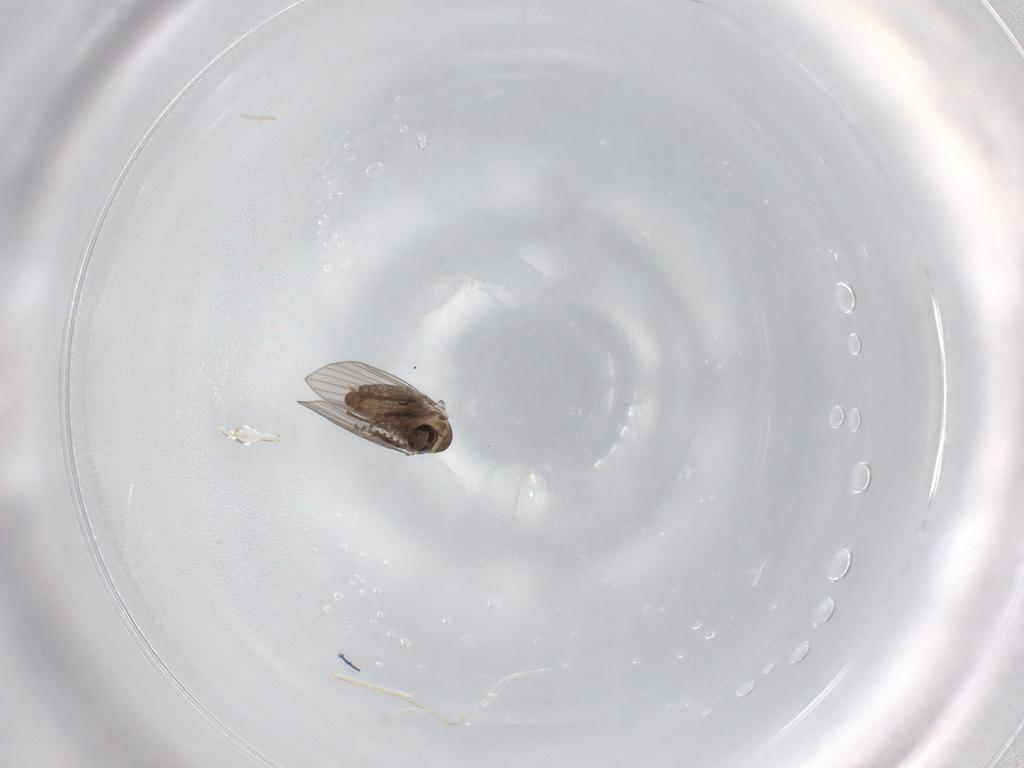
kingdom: Animalia
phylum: Arthropoda
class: Insecta
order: Diptera
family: Psychodidae
